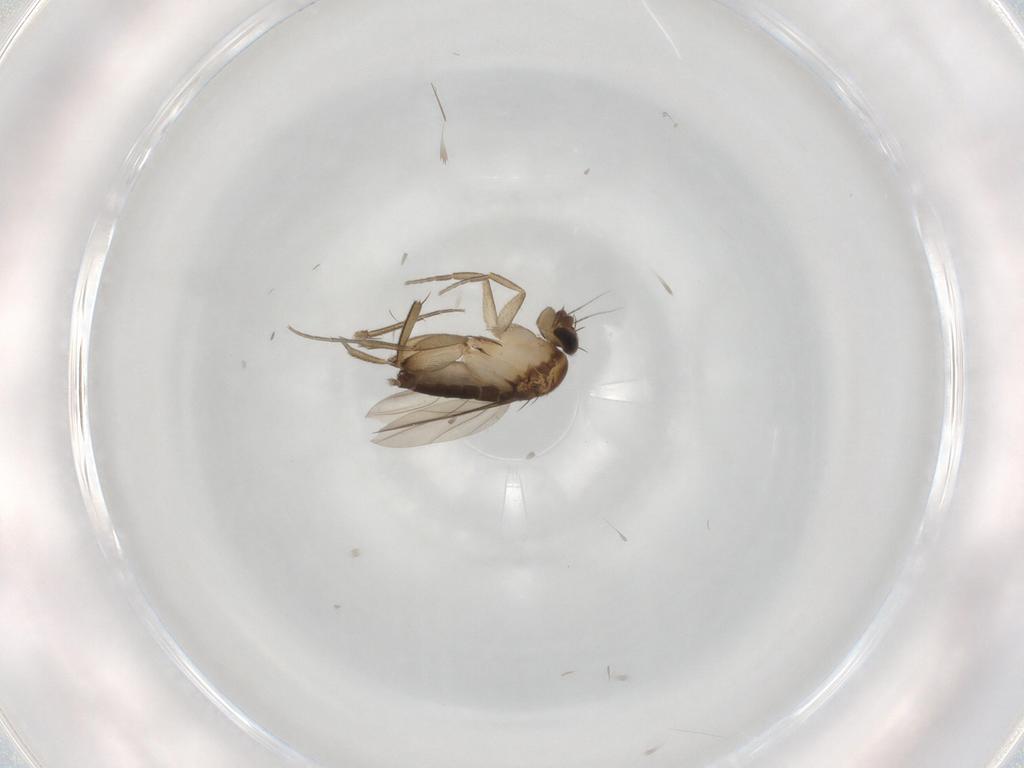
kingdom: Animalia
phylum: Arthropoda
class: Insecta
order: Diptera
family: Phoridae
